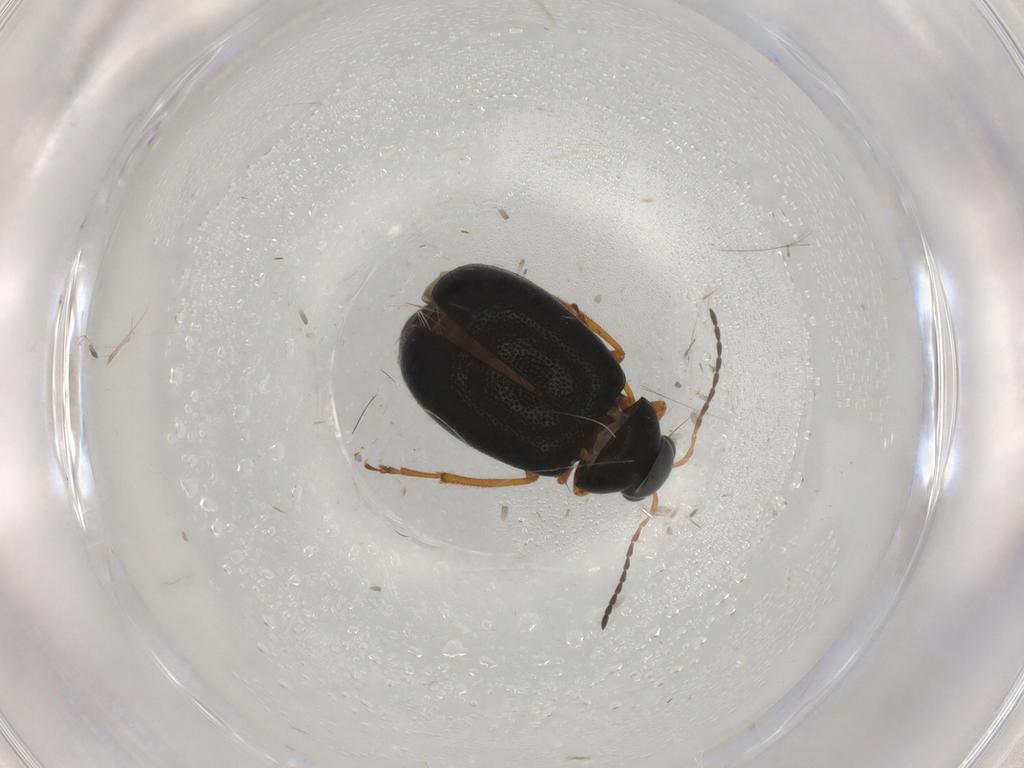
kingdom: Animalia
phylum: Arthropoda
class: Insecta
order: Coleoptera
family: Chrysomelidae
